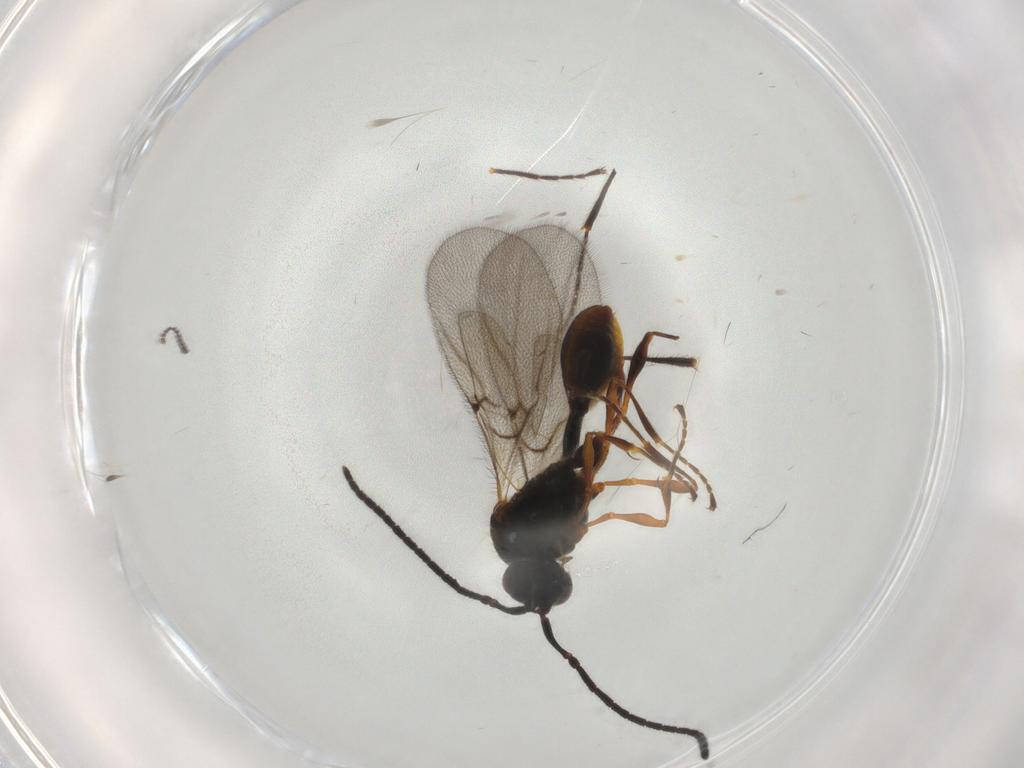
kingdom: Animalia
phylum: Arthropoda
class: Insecta
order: Hymenoptera
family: Diapriidae
